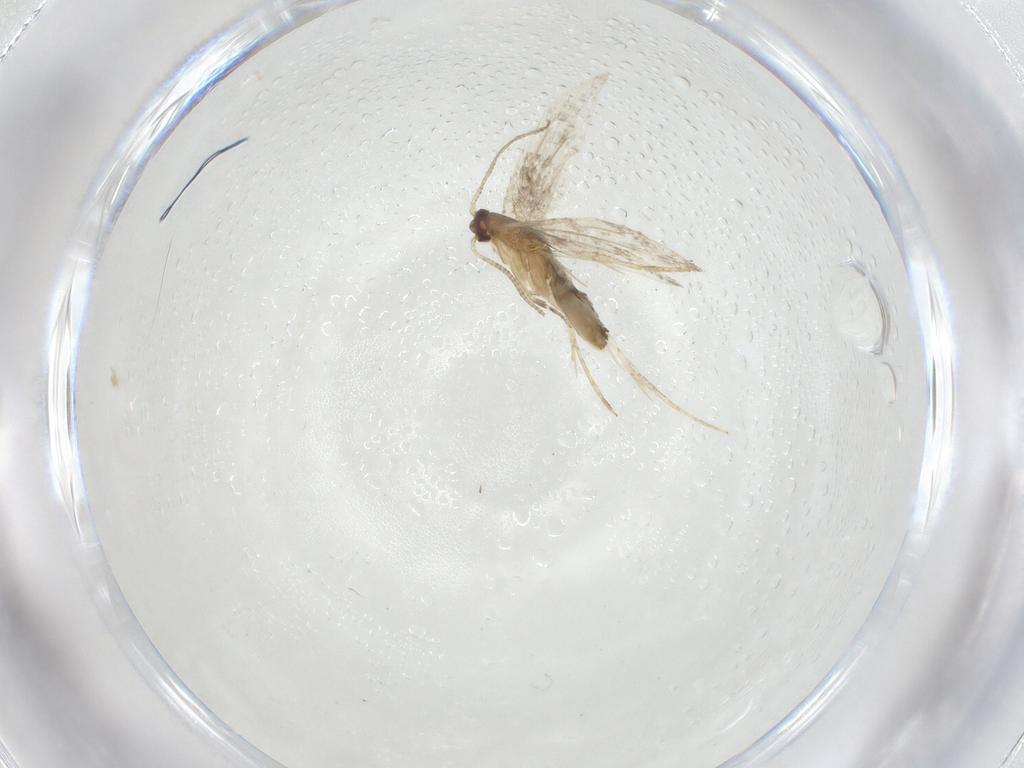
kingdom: Animalia
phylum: Arthropoda
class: Insecta
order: Lepidoptera
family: Tineidae
